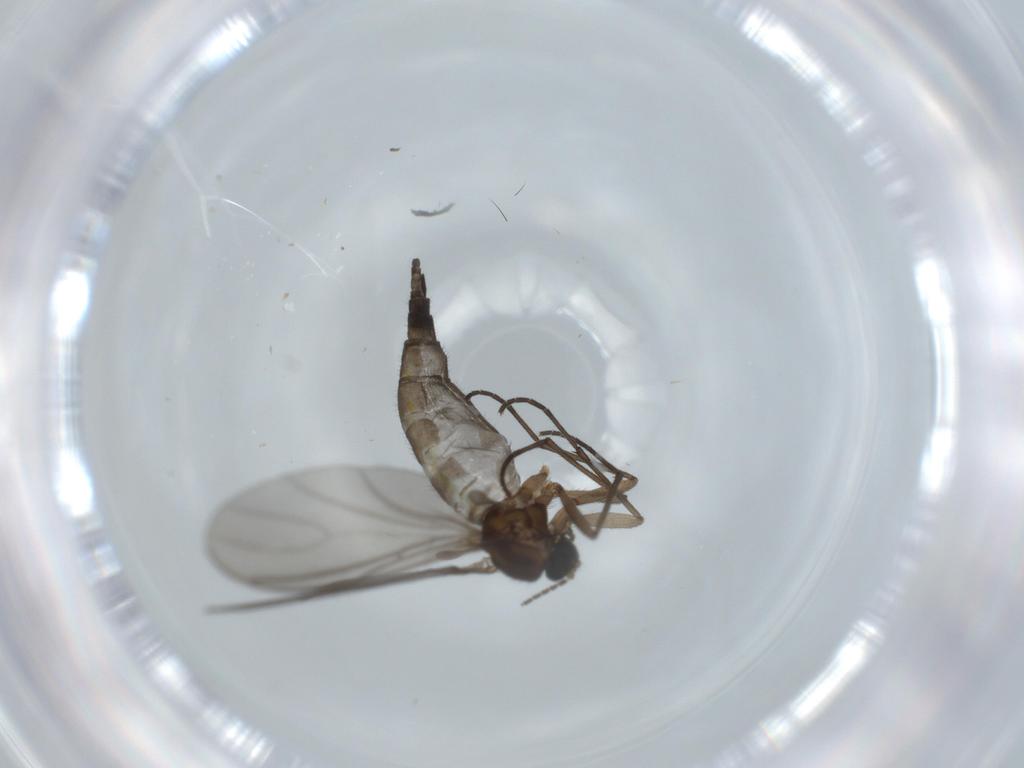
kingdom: Animalia
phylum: Arthropoda
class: Insecta
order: Diptera
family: Sciaridae
